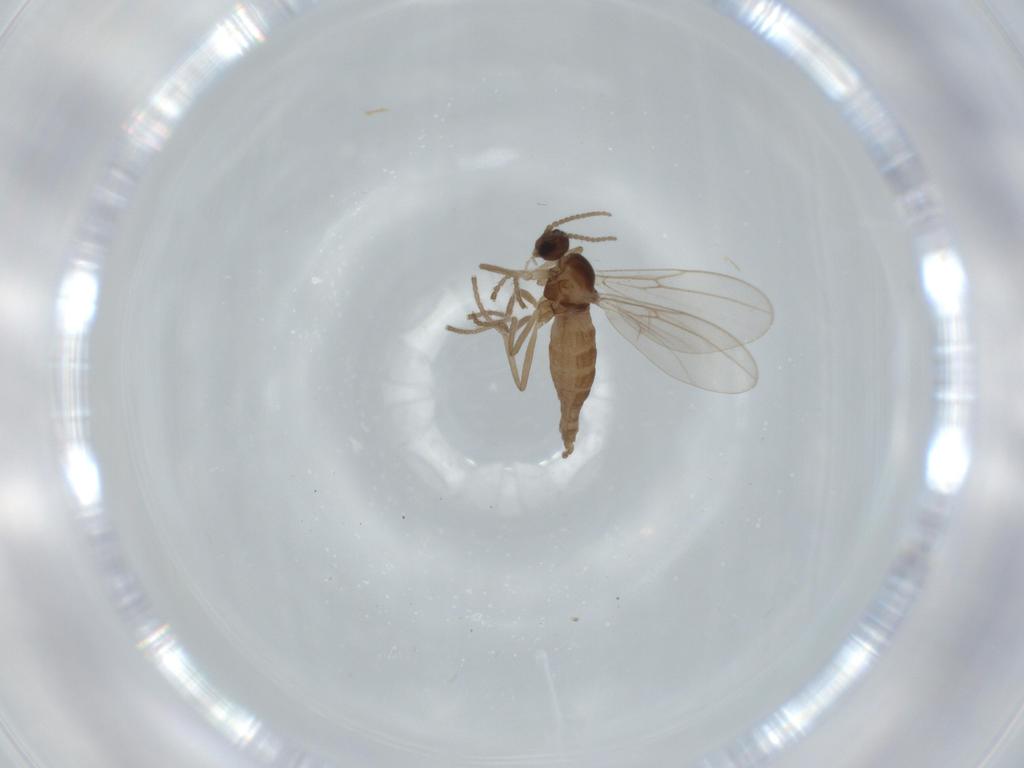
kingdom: Animalia
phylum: Arthropoda
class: Insecta
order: Diptera
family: Cecidomyiidae
